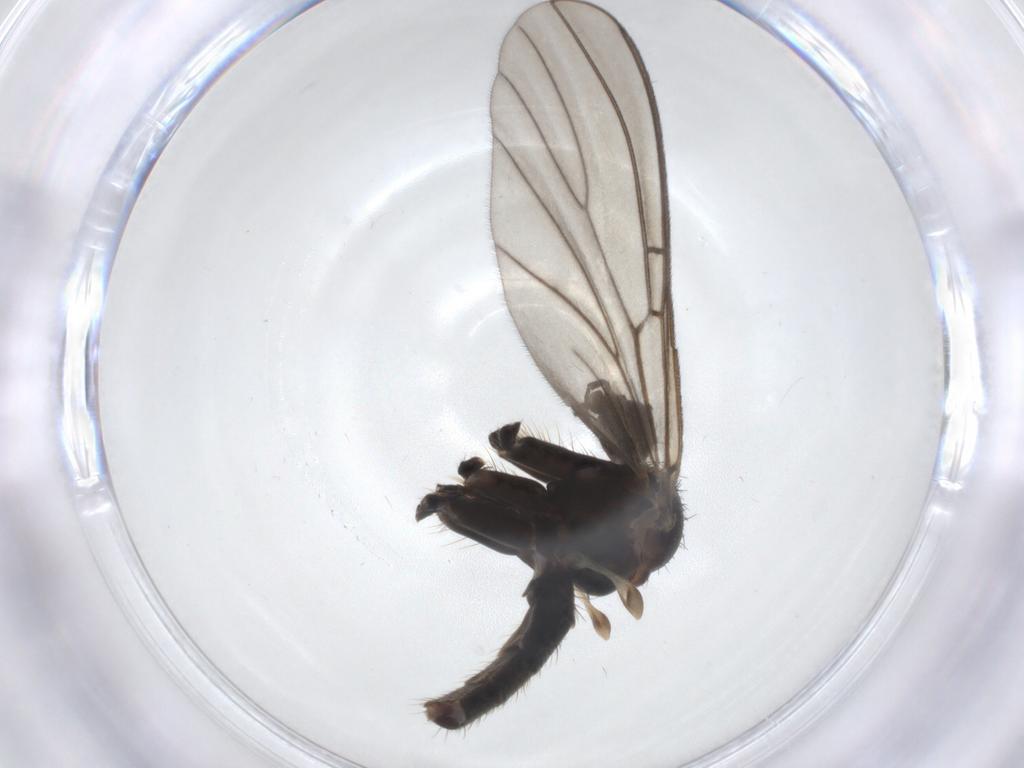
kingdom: Animalia
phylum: Arthropoda
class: Insecta
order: Diptera
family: Mycetophilidae
